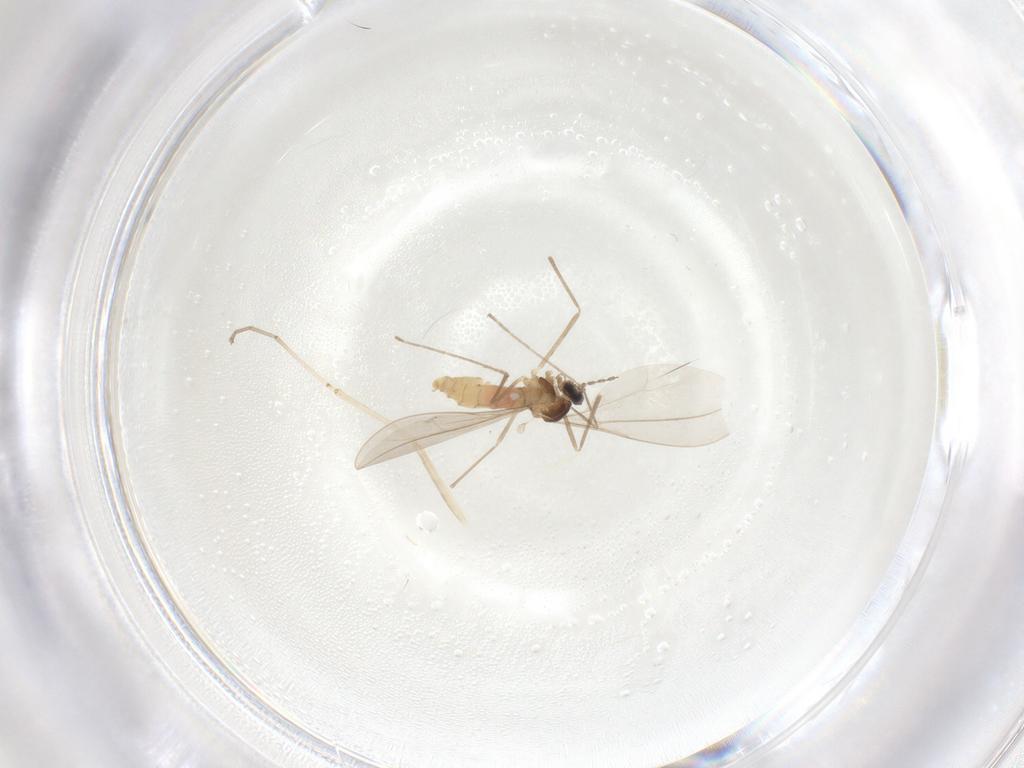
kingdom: Animalia
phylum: Arthropoda
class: Insecta
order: Diptera
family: Cecidomyiidae
